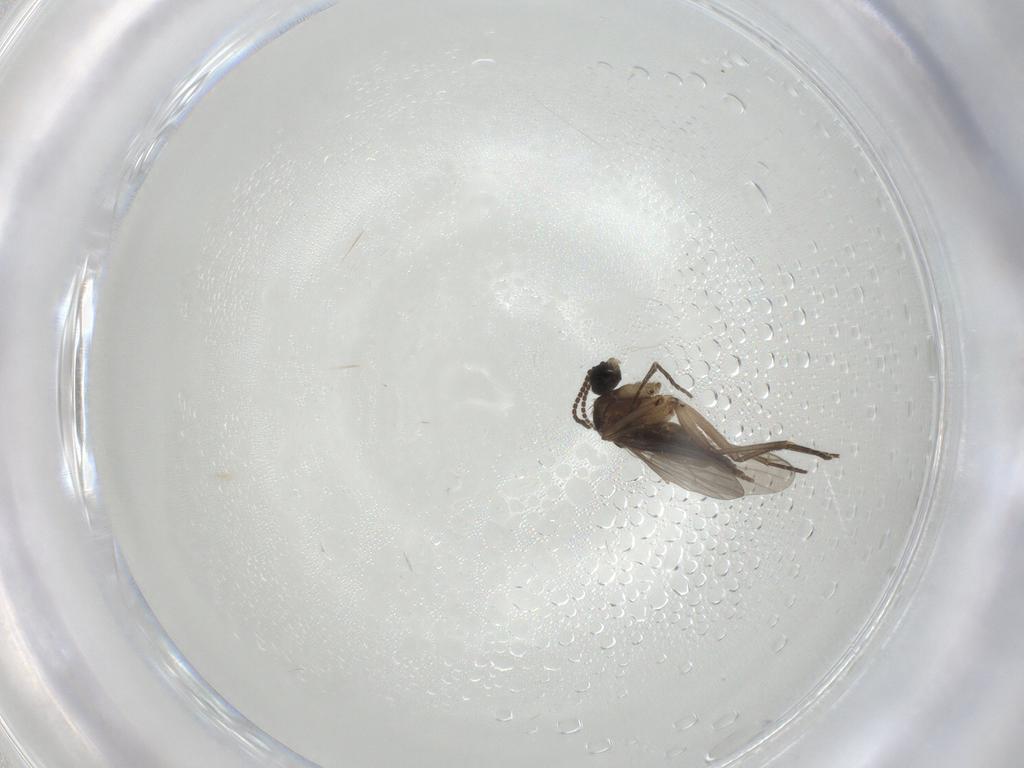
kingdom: Animalia
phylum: Arthropoda
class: Insecta
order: Diptera
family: Sciaridae
